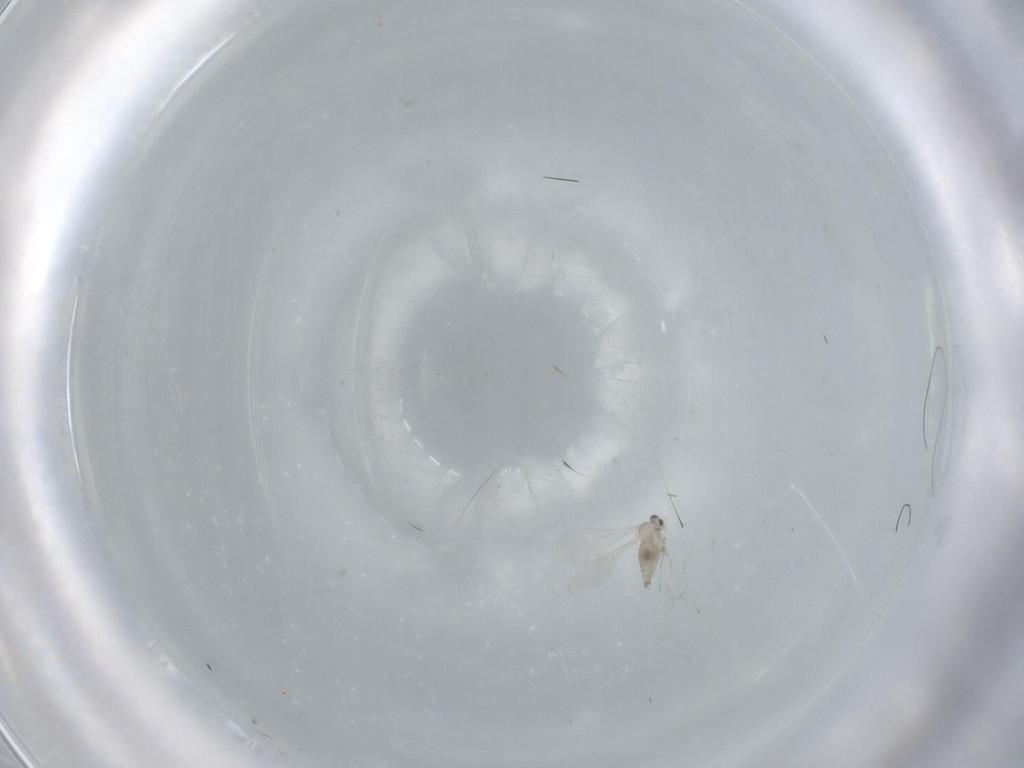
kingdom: Animalia
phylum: Arthropoda
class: Insecta
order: Diptera
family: Cecidomyiidae
